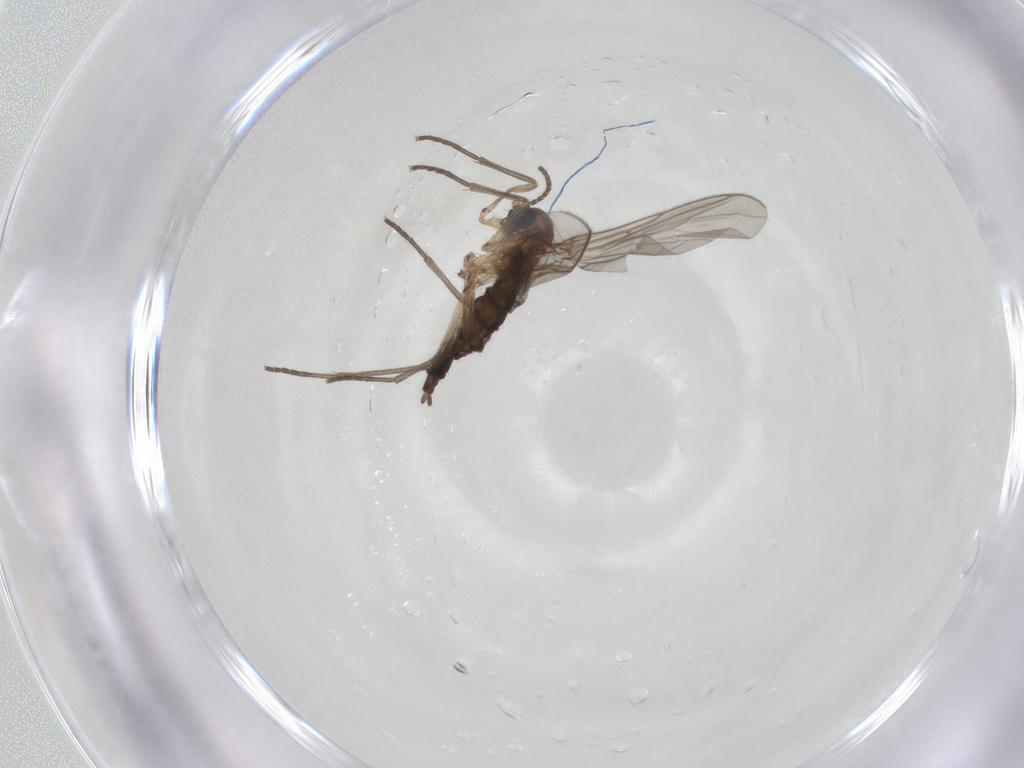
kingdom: Animalia
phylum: Arthropoda
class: Insecta
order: Diptera
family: Sciaridae
